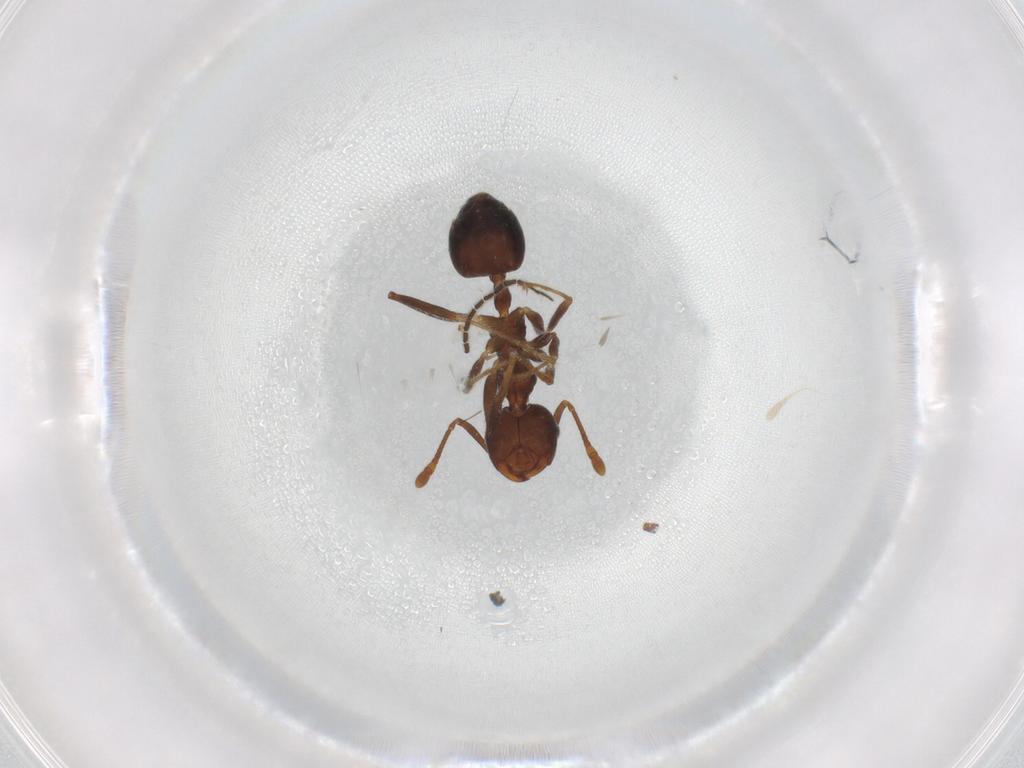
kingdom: Animalia
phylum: Arthropoda
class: Insecta
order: Hymenoptera
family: Formicidae
